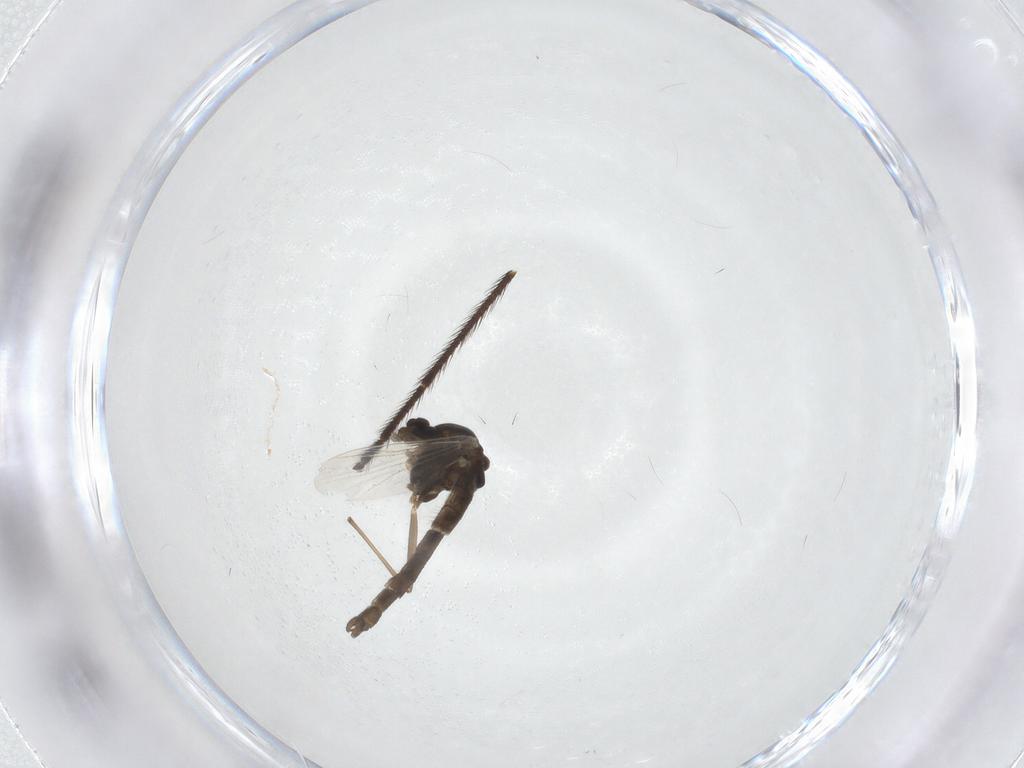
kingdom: Animalia
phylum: Arthropoda
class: Insecta
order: Diptera
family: Chironomidae
